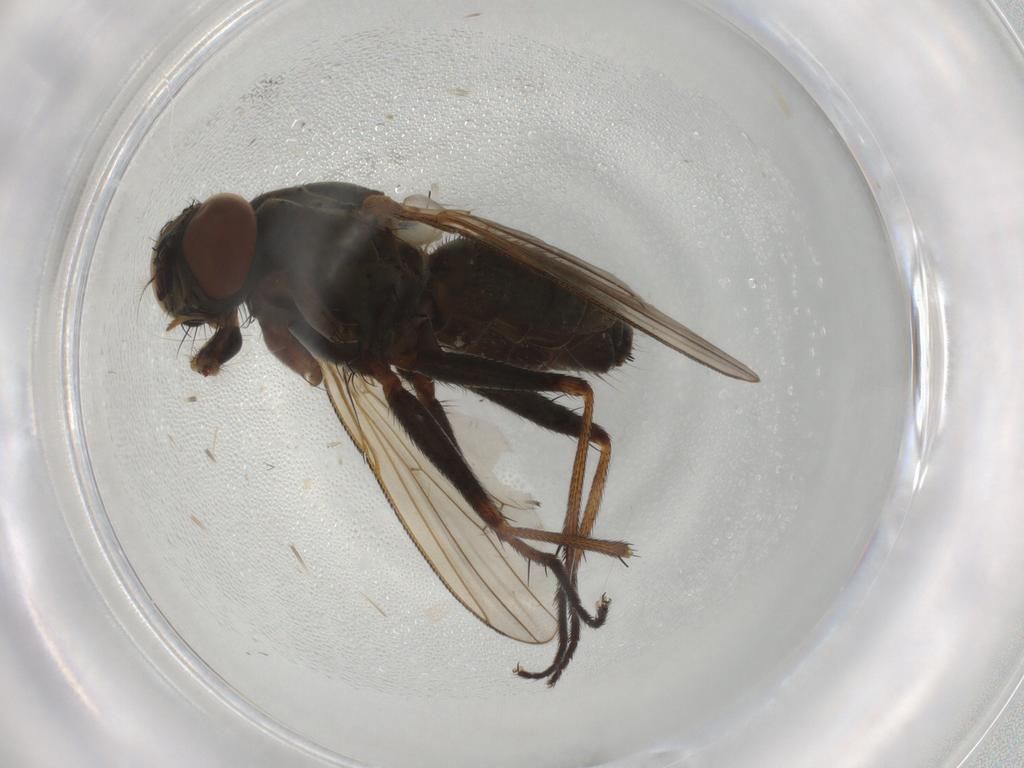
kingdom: Animalia
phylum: Arthropoda
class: Insecta
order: Diptera
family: Muscidae
